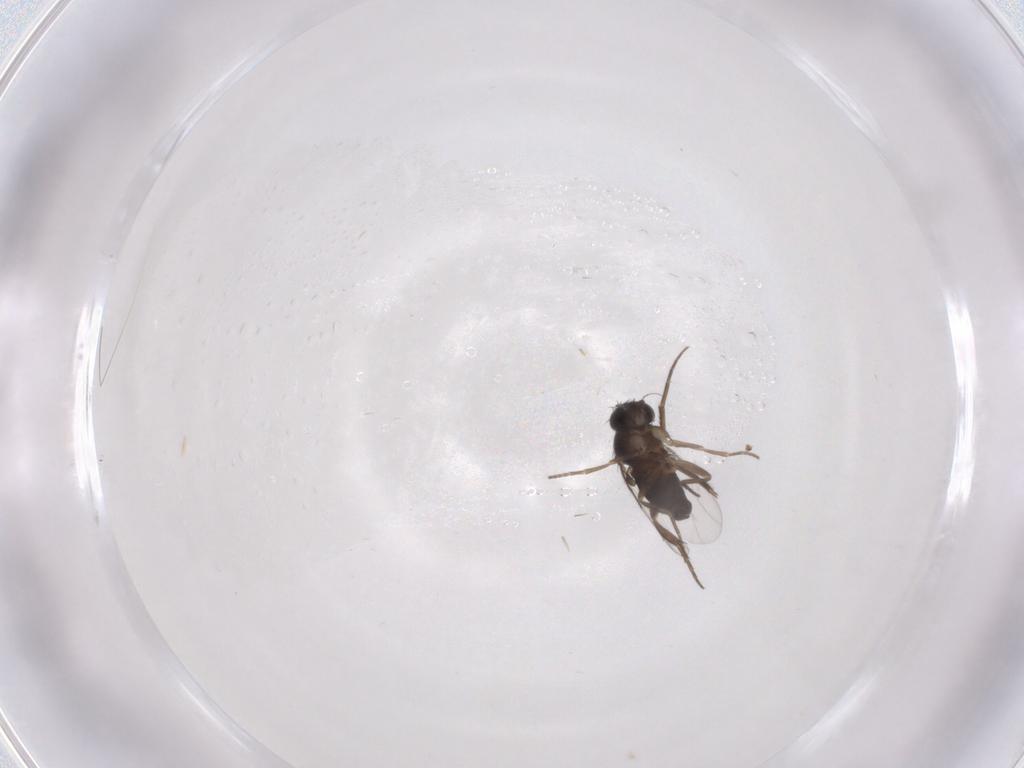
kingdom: Animalia
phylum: Arthropoda
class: Insecta
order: Diptera
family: Phoridae
